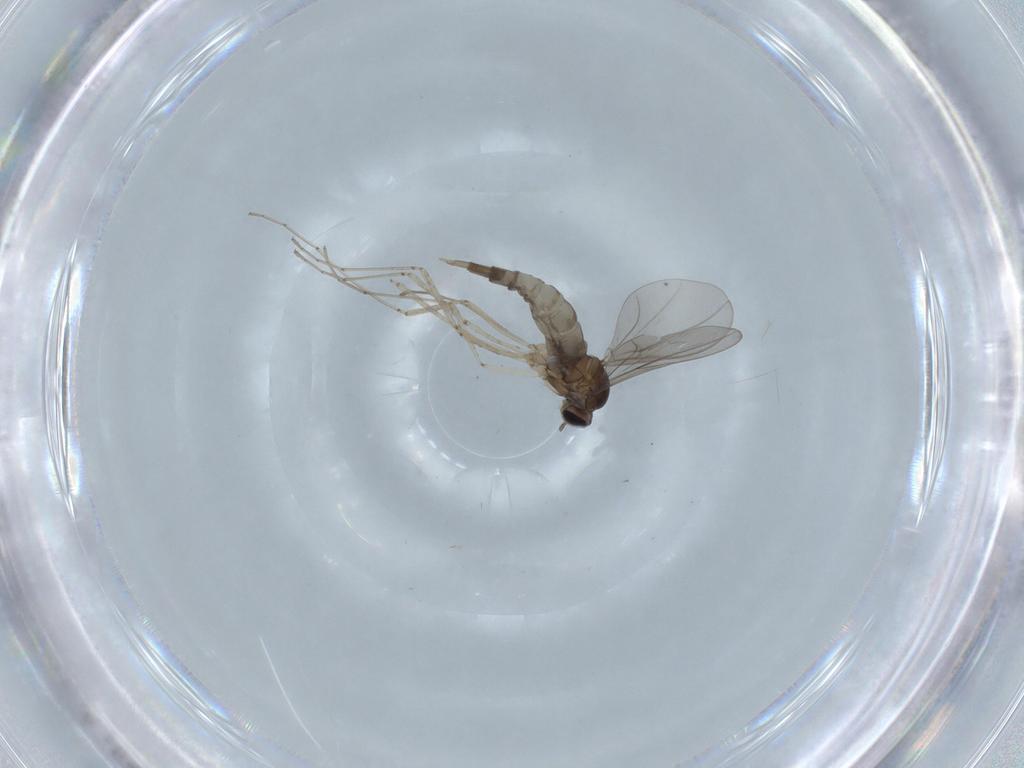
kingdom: Animalia
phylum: Arthropoda
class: Insecta
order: Diptera
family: Cecidomyiidae
